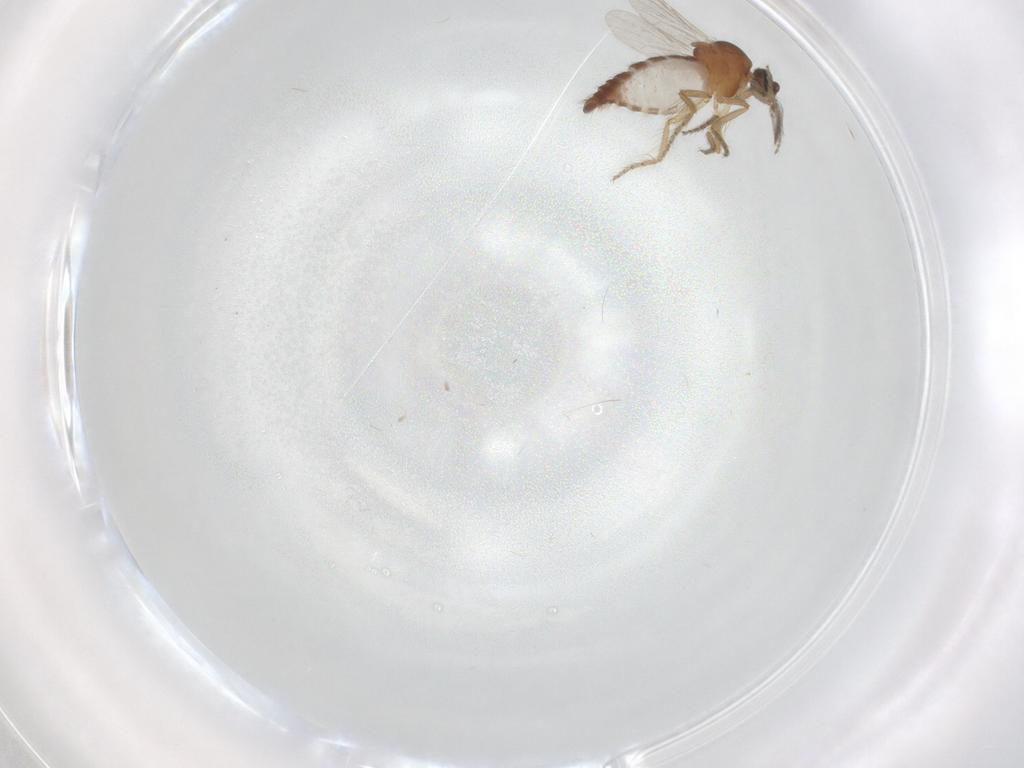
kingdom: Animalia
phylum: Arthropoda
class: Insecta
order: Diptera
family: Ceratopogonidae
